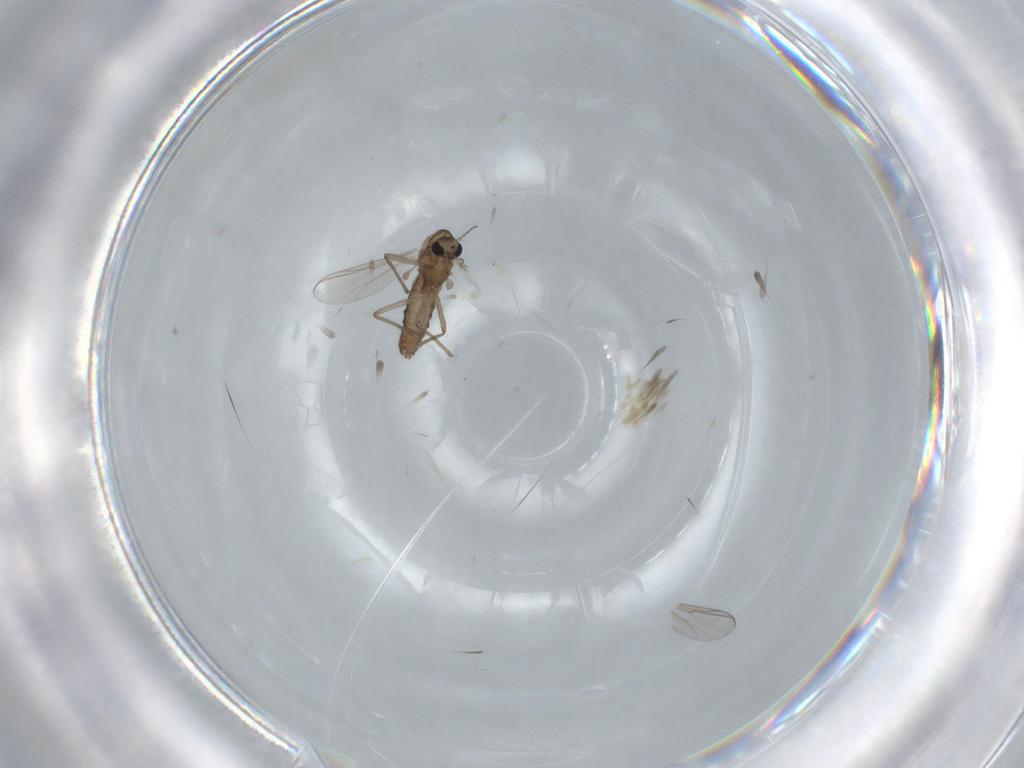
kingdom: Animalia
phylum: Arthropoda
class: Insecta
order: Diptera
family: Chironomidae
